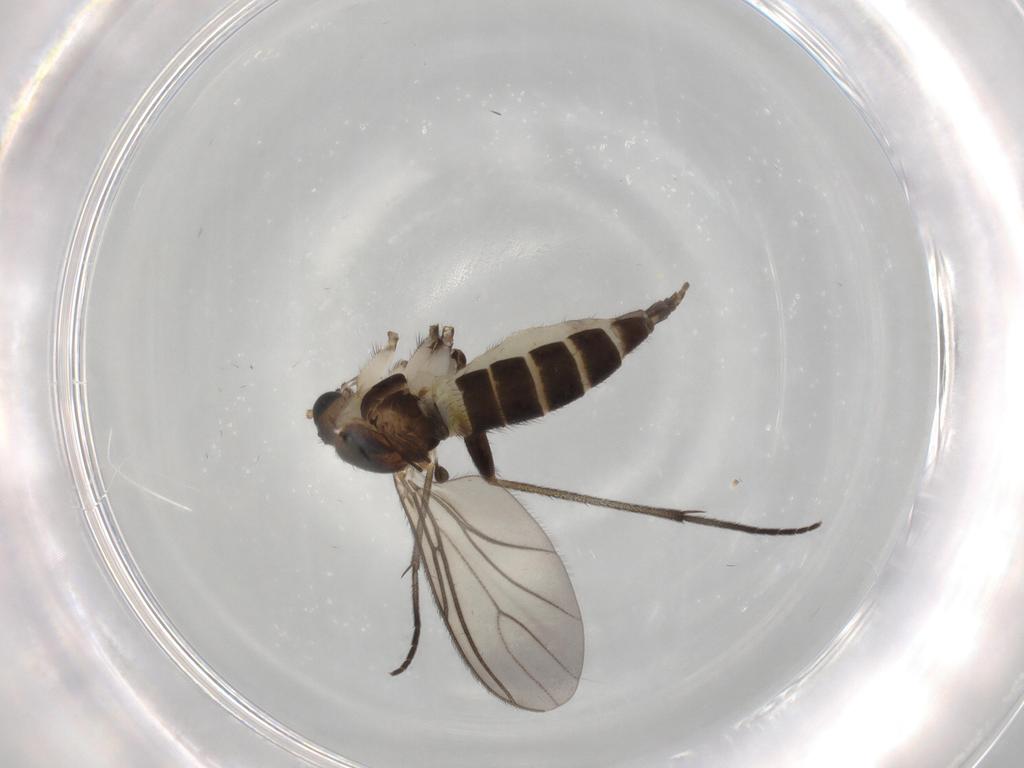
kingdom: Animalia
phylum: Arthropoda
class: Insecta
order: Diptera
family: Sciaridae
